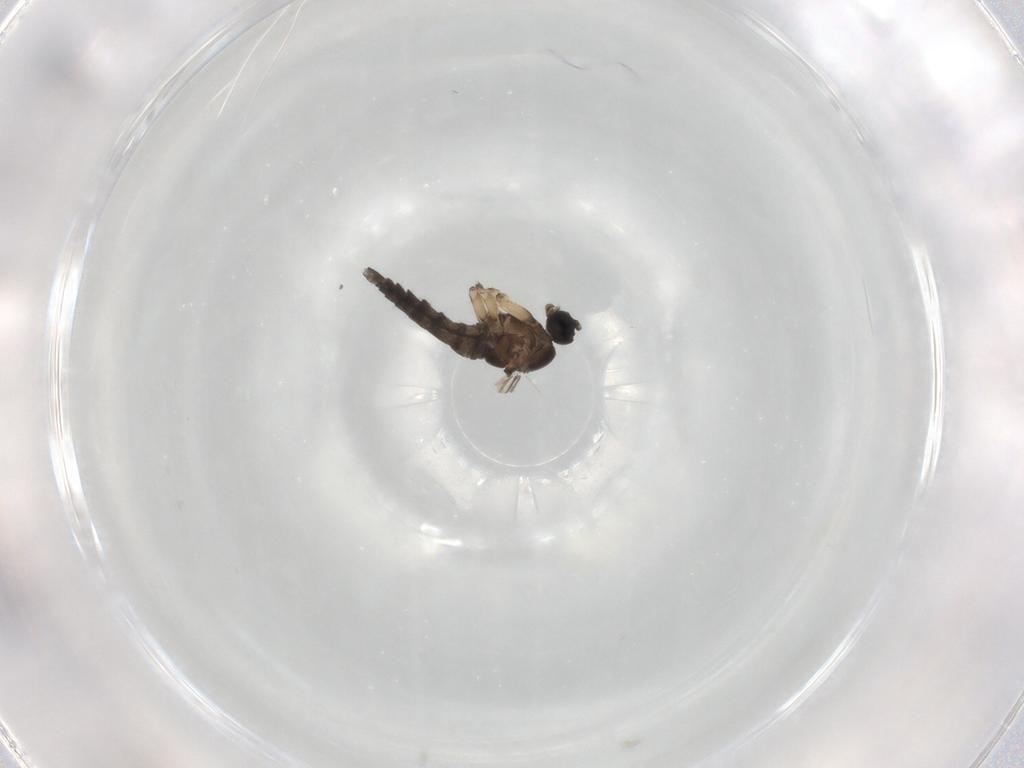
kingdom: Animalia
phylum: Arthropoda
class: Insecta
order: Diptera
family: Sciaridae
